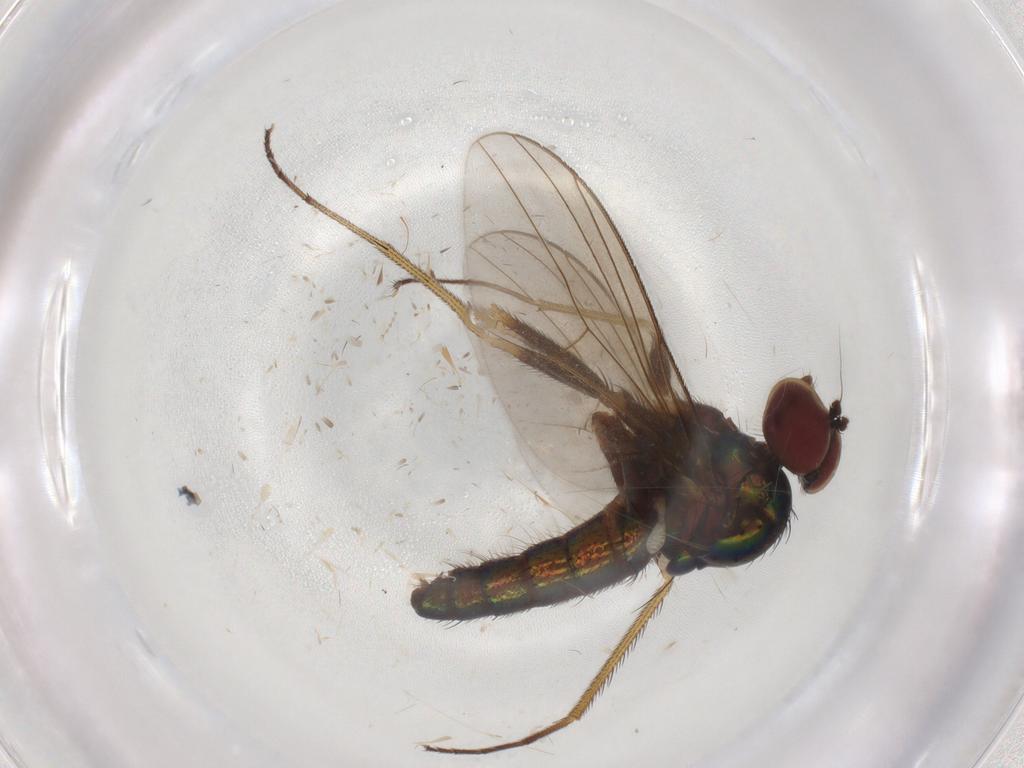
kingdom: Animalia
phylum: Arthropoda
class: Insecta
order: Diptera
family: Dolichopodidae
